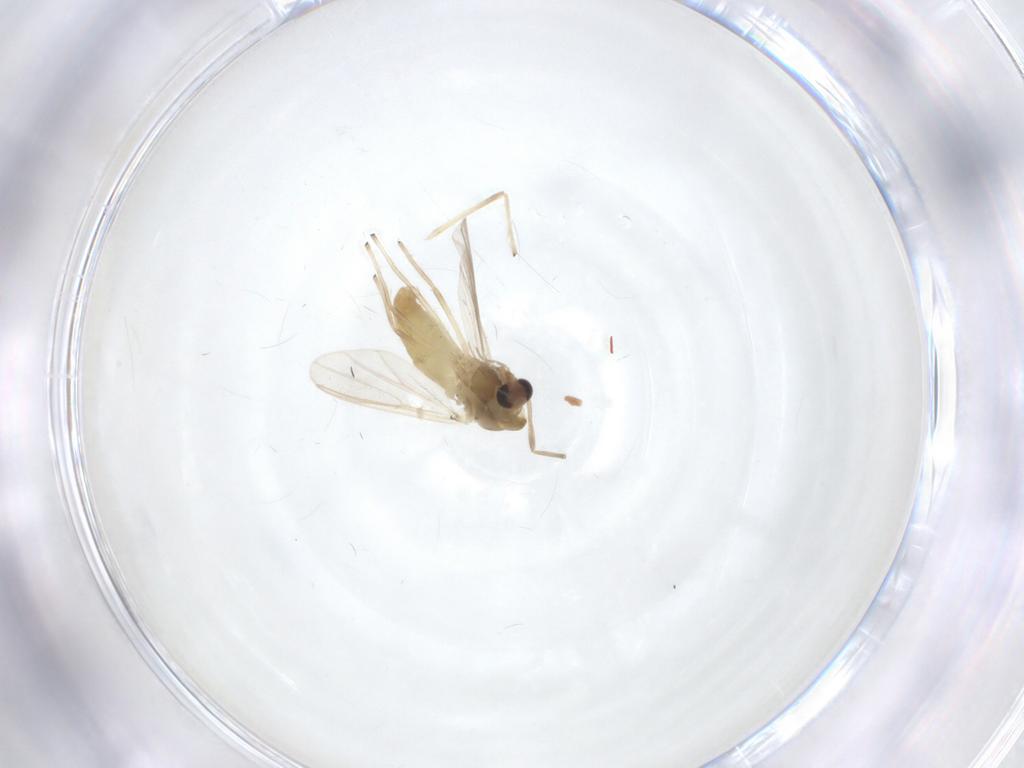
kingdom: Animalia
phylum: Arthropoda
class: Insecta
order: Diptera
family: Chironomidae
